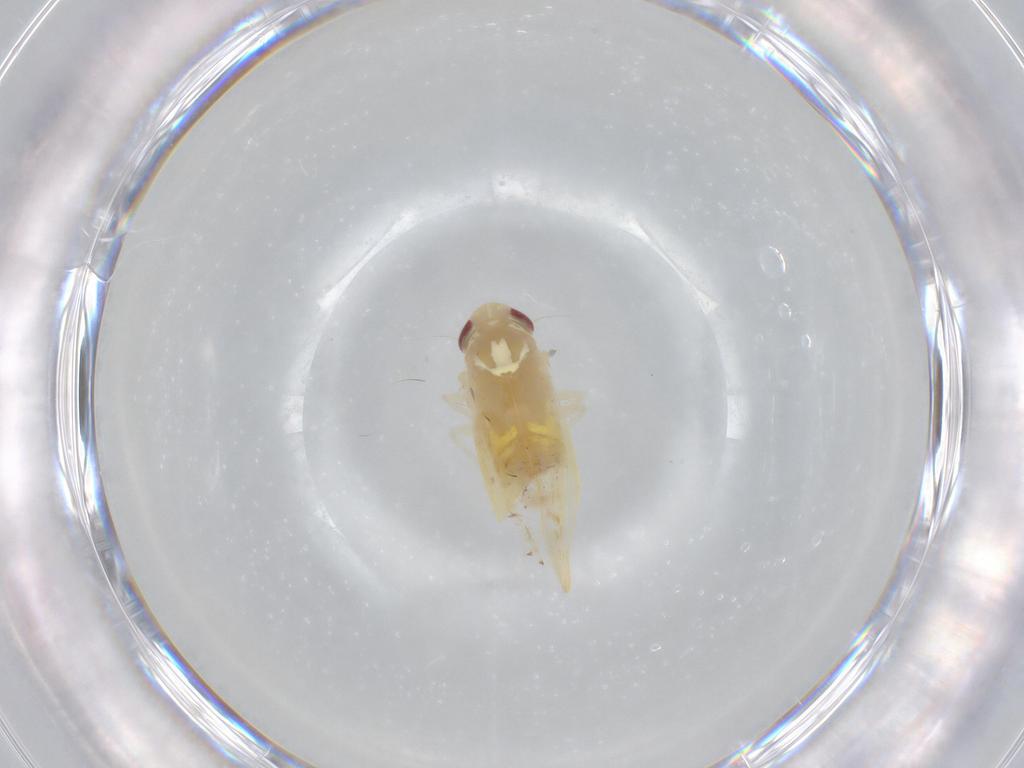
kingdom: Animalia
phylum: Arthropoda
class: Insecta
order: Hemiptera
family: Cicadellidae
